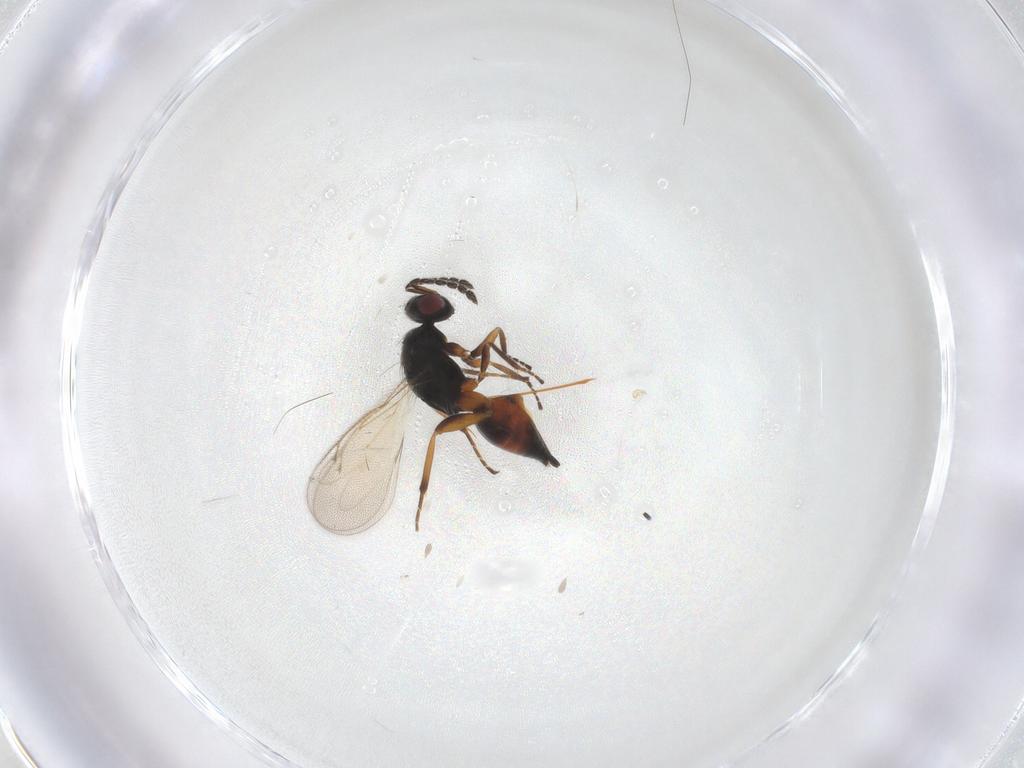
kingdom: Animalia
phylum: Arthropoda
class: Insecta
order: Hymenoptera
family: Eulophidae
